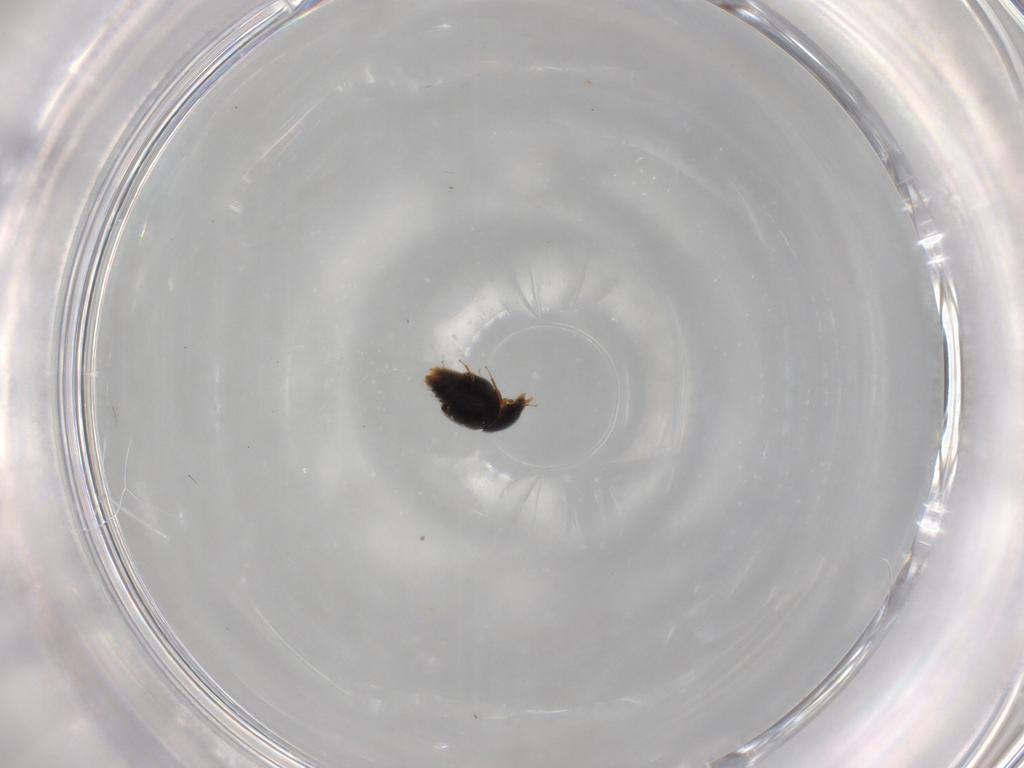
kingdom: Animalia
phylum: Arthropoda
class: Insecta
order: Coleoptera
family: Staphylinidae
